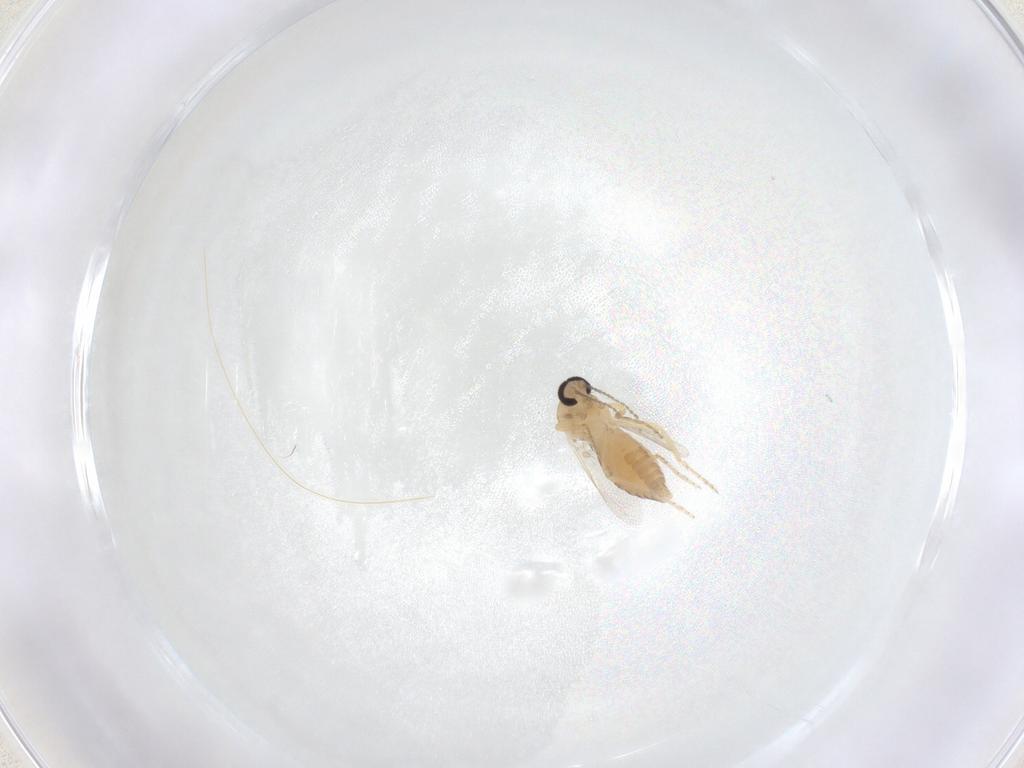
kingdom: Animalia
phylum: Arthropoda
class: Insecta
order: Diptera
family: Ceratopogonidae
